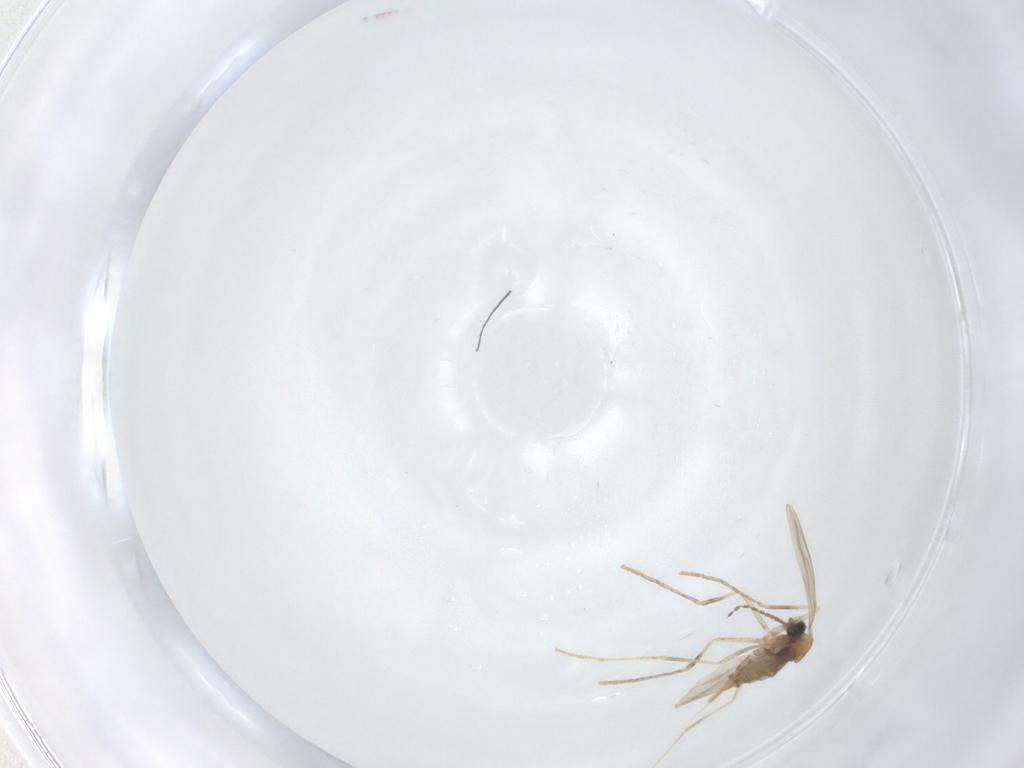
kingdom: Animalia
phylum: Arthropoda
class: Insecta
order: Diptera
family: Cecidomyiidae
